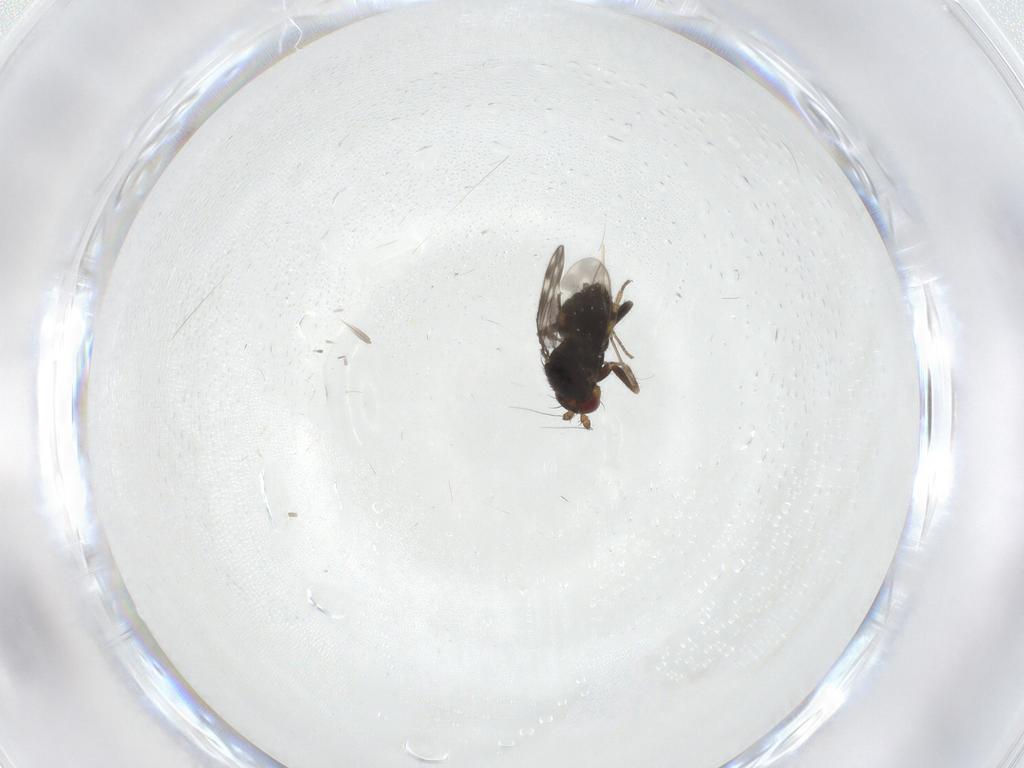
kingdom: Animalia
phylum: Arthropoda
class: Insecta
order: Diptera
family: Sphaeroceridae
